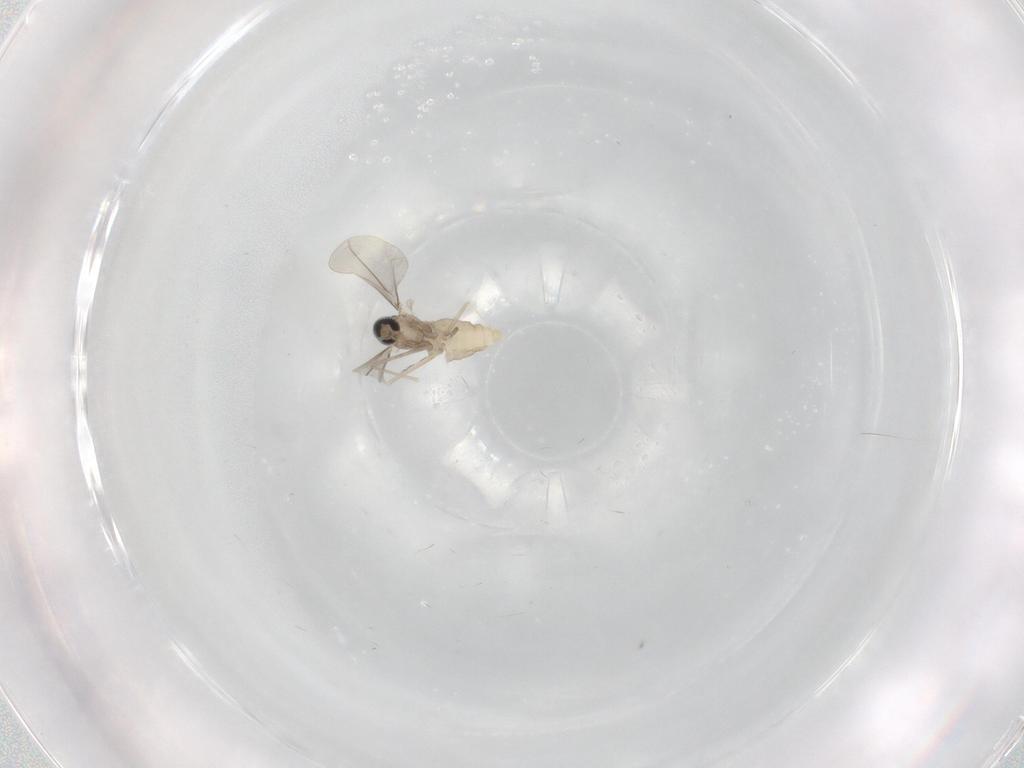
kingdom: Animalia
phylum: Arthropoda
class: Insecta
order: Diptera
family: Cecidomyiidae
